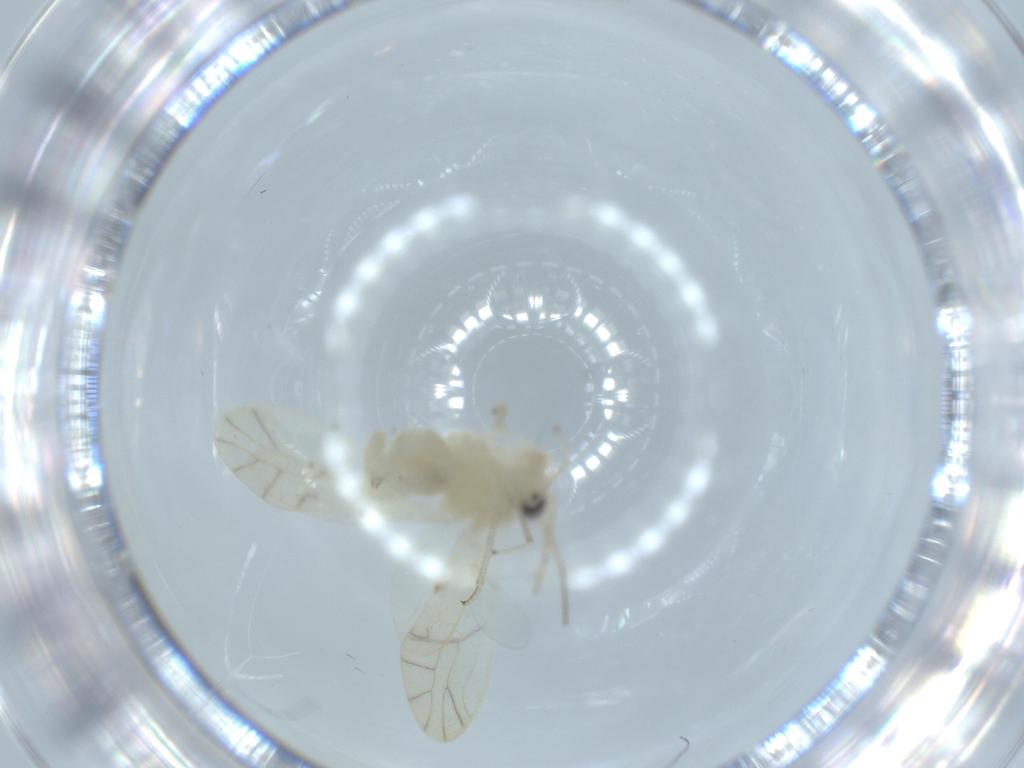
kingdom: Animalia
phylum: Arthropoda
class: Insecta
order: Psocodea
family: Caeciliusidae
